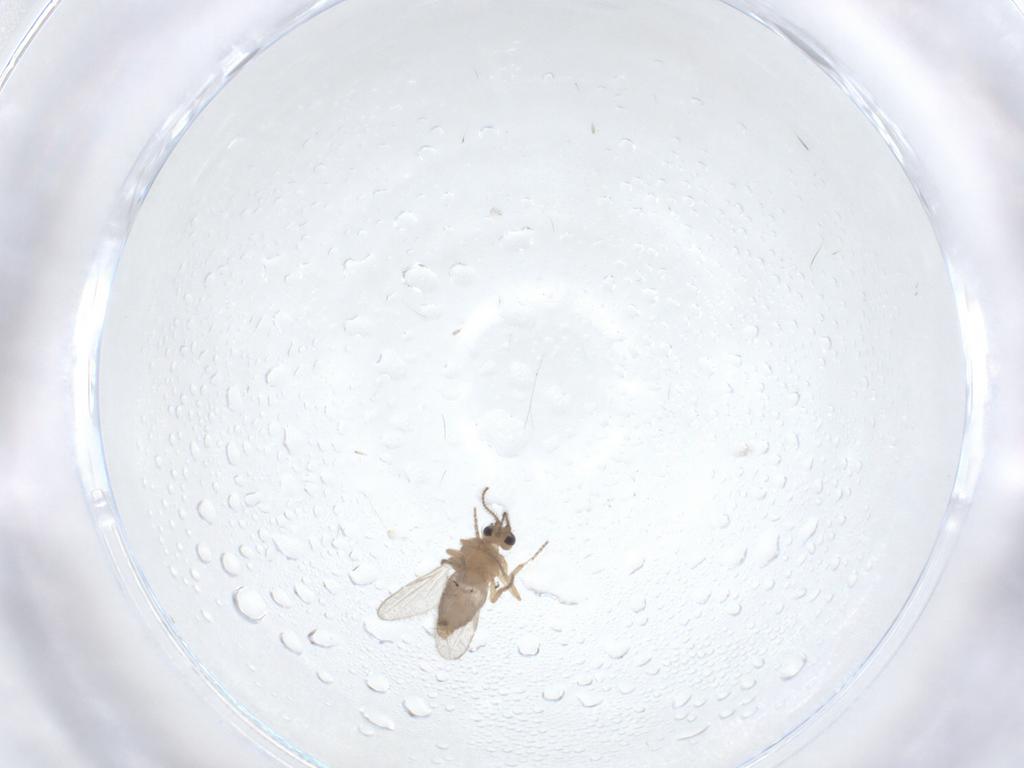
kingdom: Animalia
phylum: Arthropoda
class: Insecta
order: Diptera
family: Ceratopogonidae
